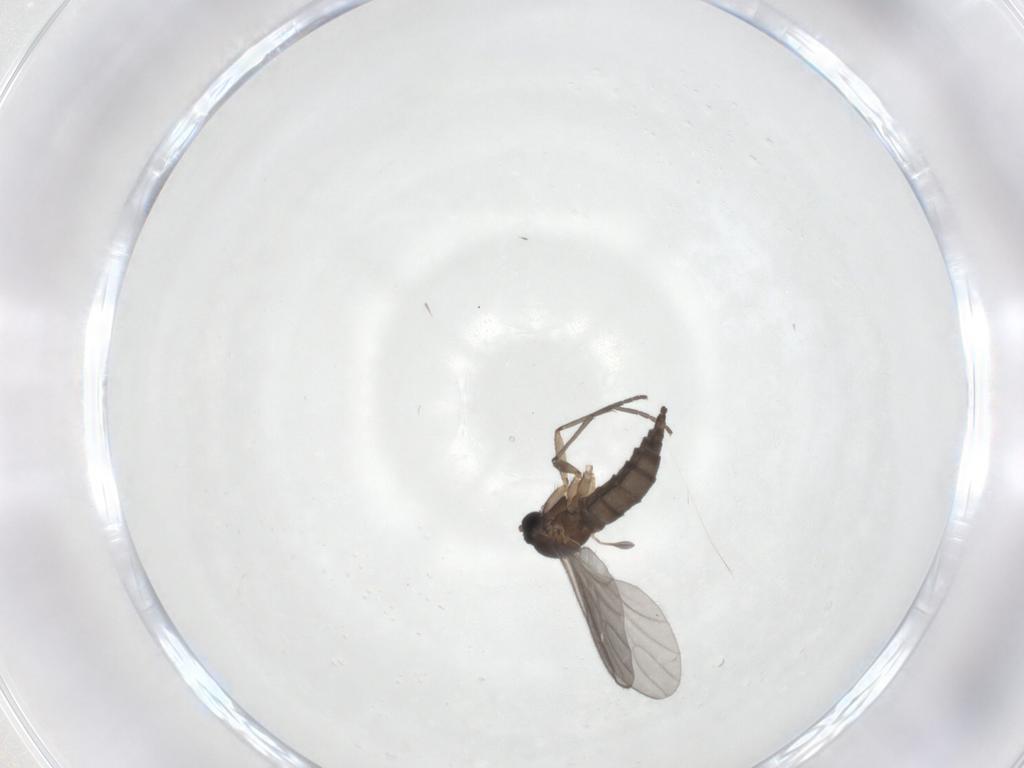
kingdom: Animalia
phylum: Arthropoda
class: Insecta
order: Diptera
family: Sciaridae
